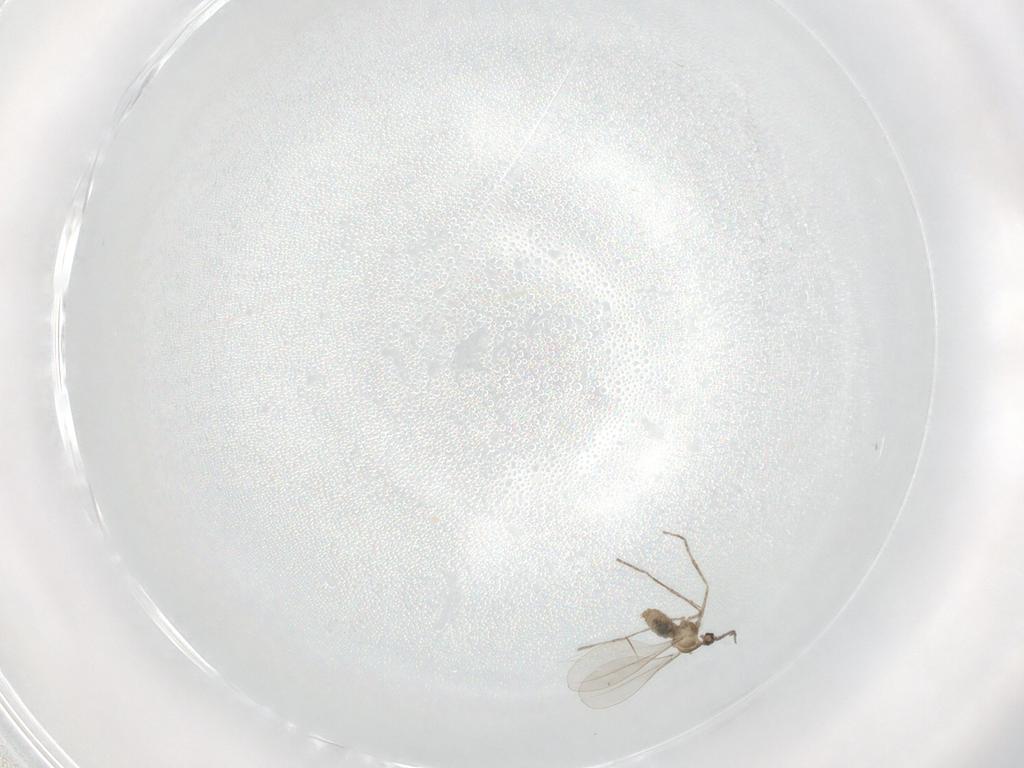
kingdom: Animalia
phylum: Arthropoda
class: Insecta
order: Diptera
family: Cecidomyiidae
